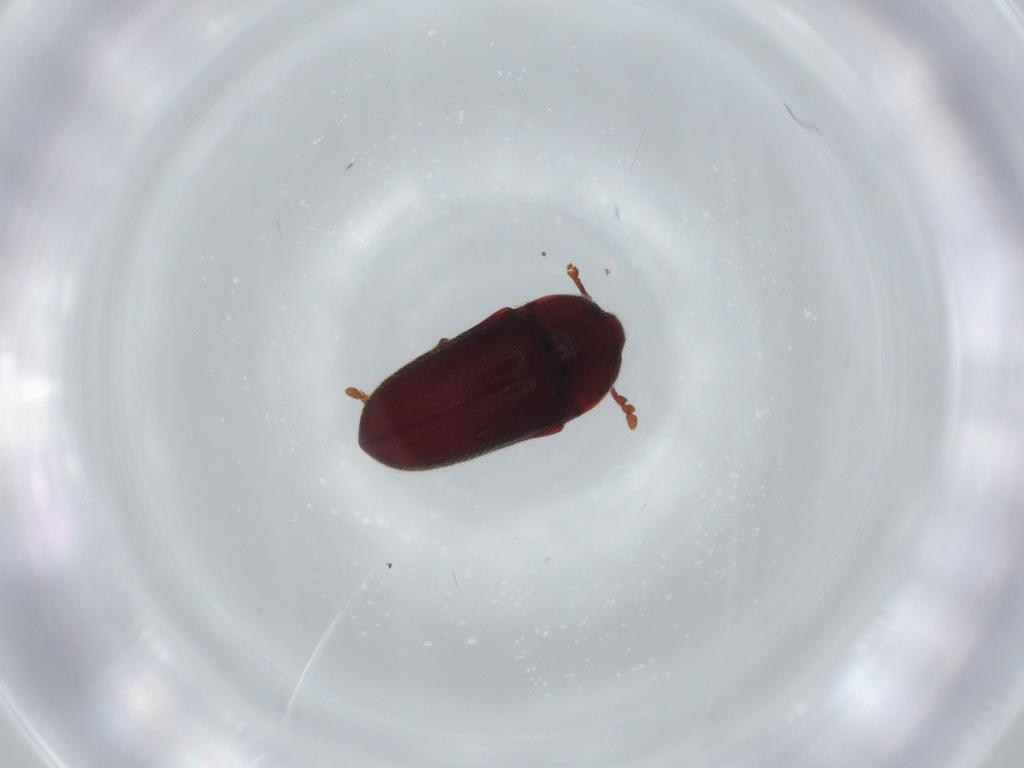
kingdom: Animalia
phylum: Arthropoda
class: Insecta
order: Coleoptera
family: Throscidae
